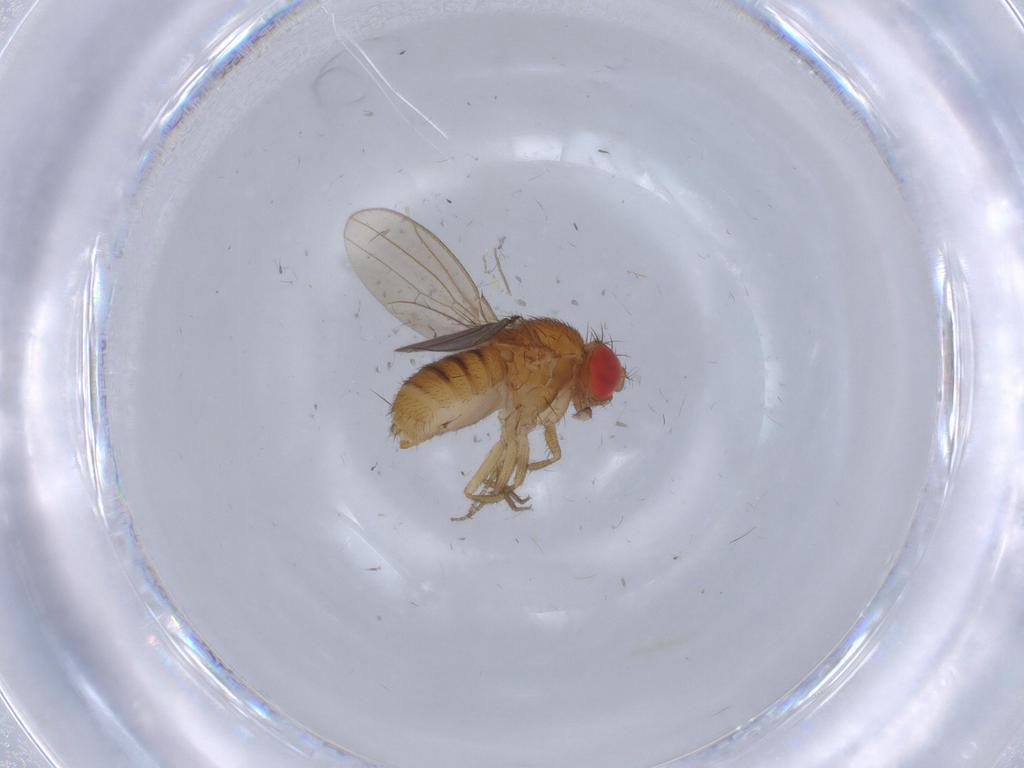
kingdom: Animalia
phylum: Arthropoda
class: Insecta
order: Diptera
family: Drosophilidae
